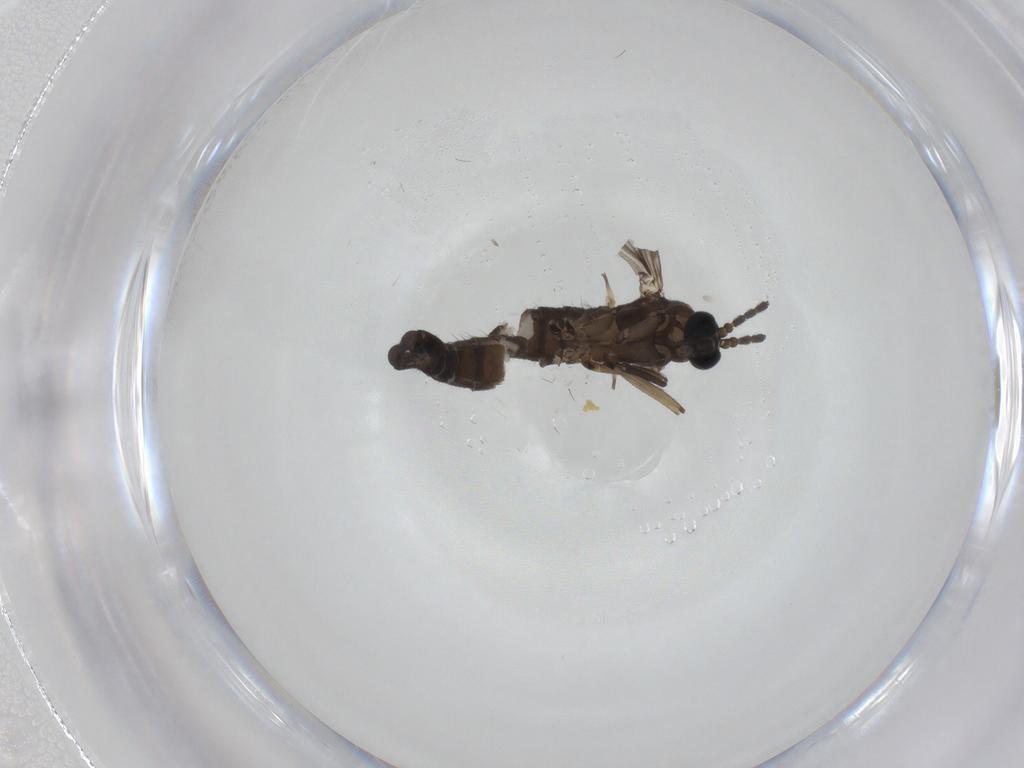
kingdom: Animalia
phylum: Arthropoda
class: Insecta
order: Diptera
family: Sciaridae
